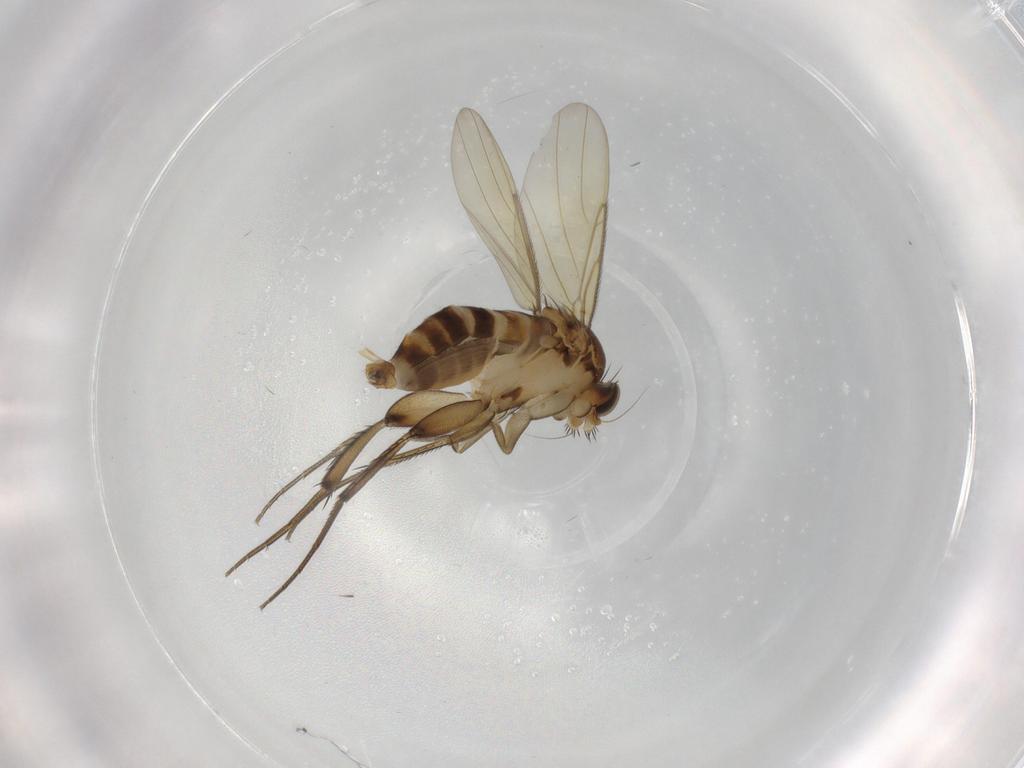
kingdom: Animalia
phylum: Arthropoda
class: Insecta
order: Diptera
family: Phoridae
